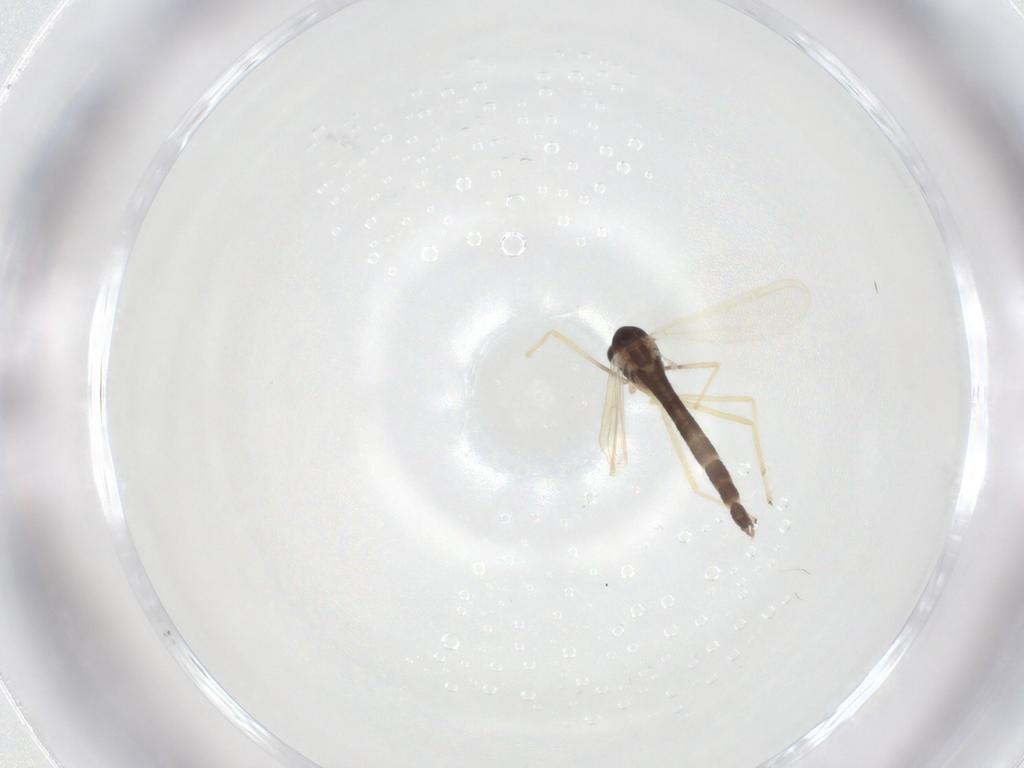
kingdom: Animalia
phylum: Arthropoda
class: Insecta
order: Diptera
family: Chironomidae
